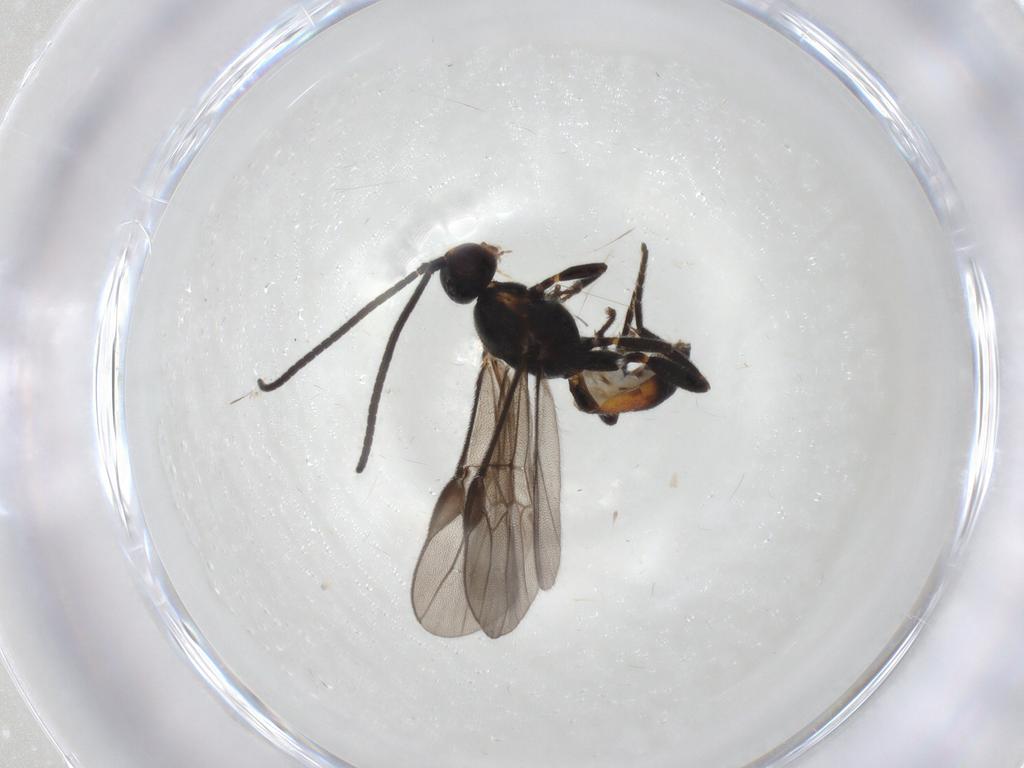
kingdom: Animalia
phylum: Arthropoda
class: Insecta
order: Hymenoptera
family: Braconidae
